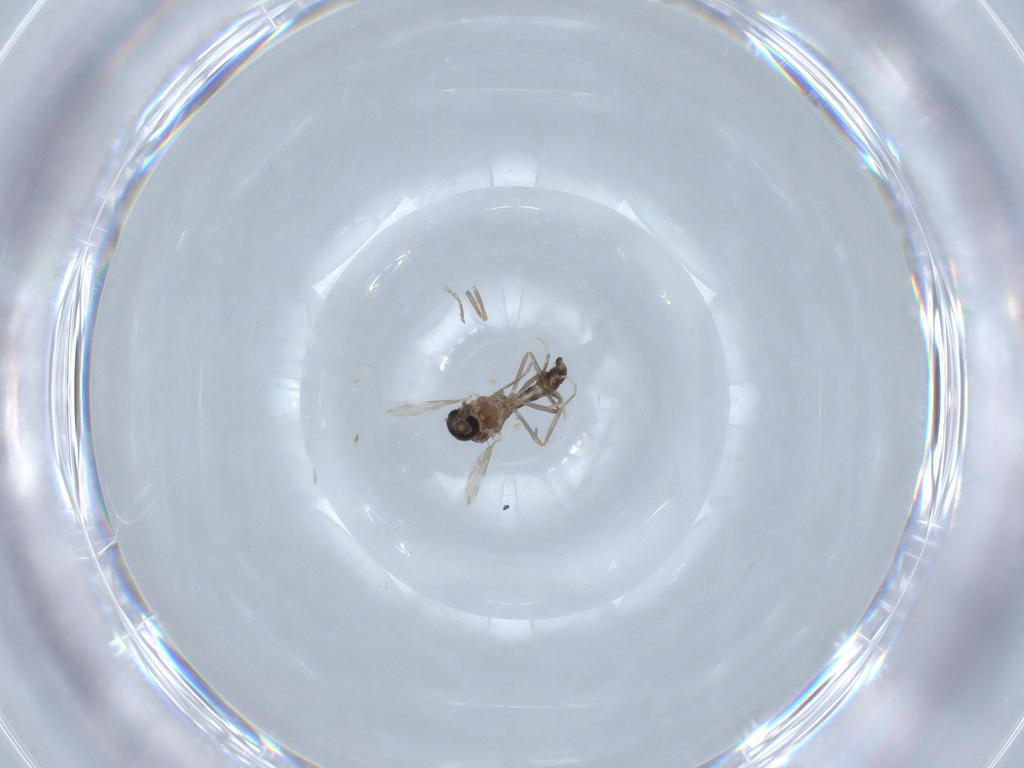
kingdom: Animalia
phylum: Arthropoda
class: Insecta
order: Diptera
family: Ceratopogonidae
